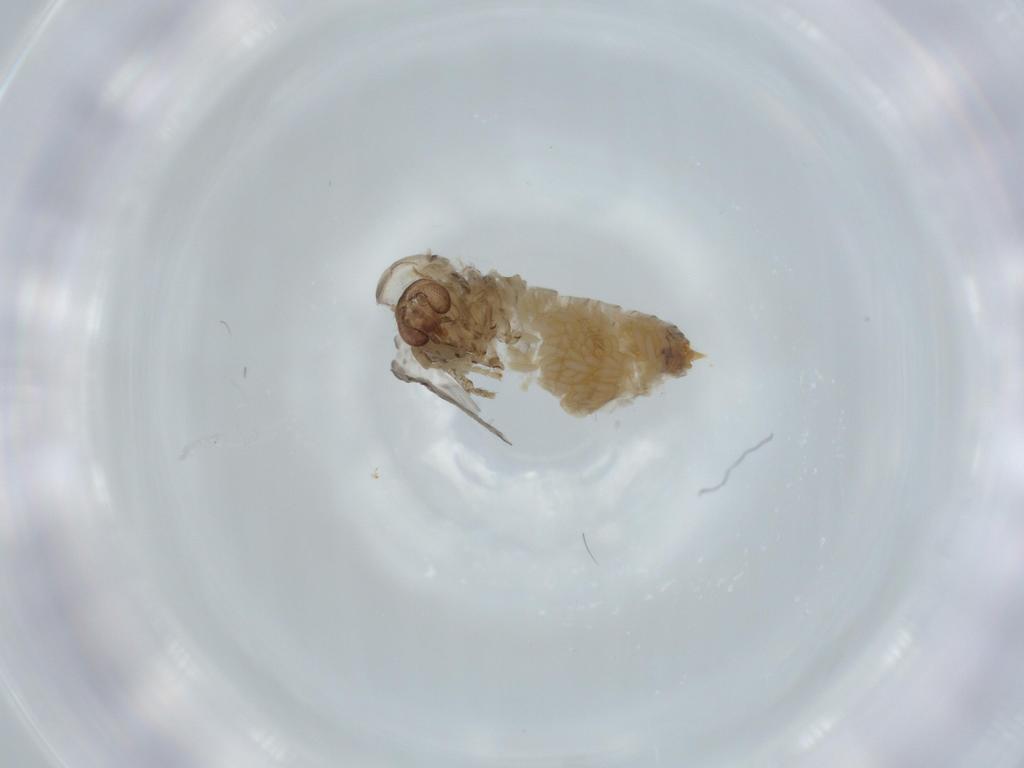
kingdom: Animalia
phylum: Arthropoda
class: Insecta
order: Diptera
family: Chironomidae
